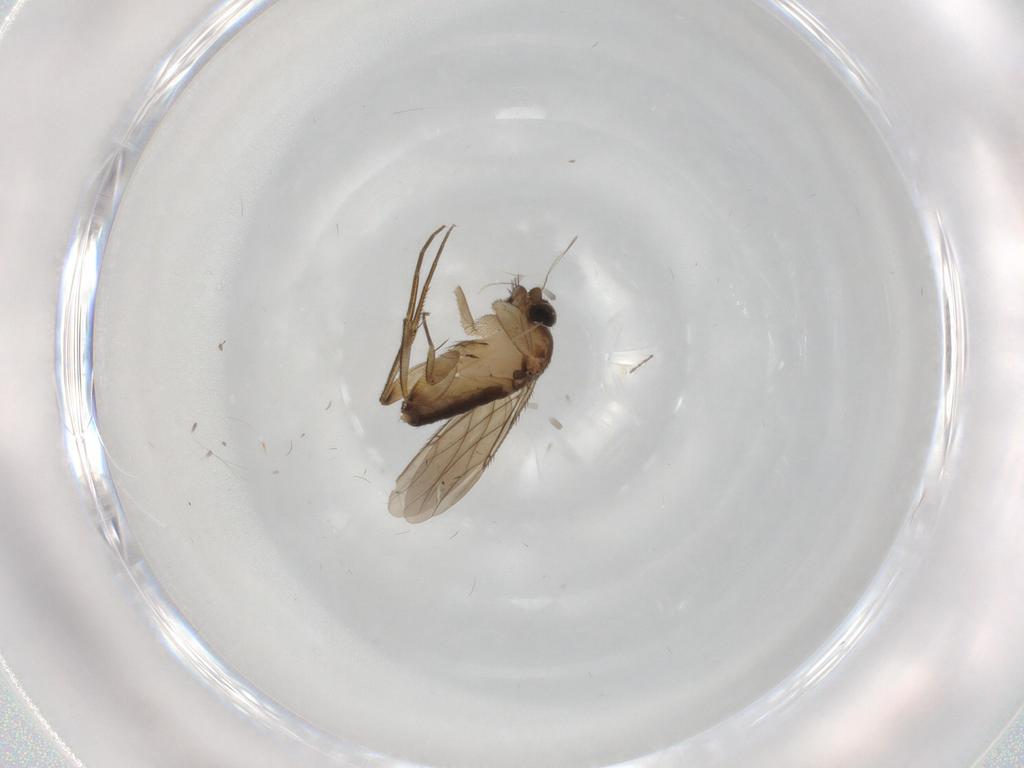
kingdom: Animalia
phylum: Arthropoda
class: Insecta
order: Diptera
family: Phoridae
